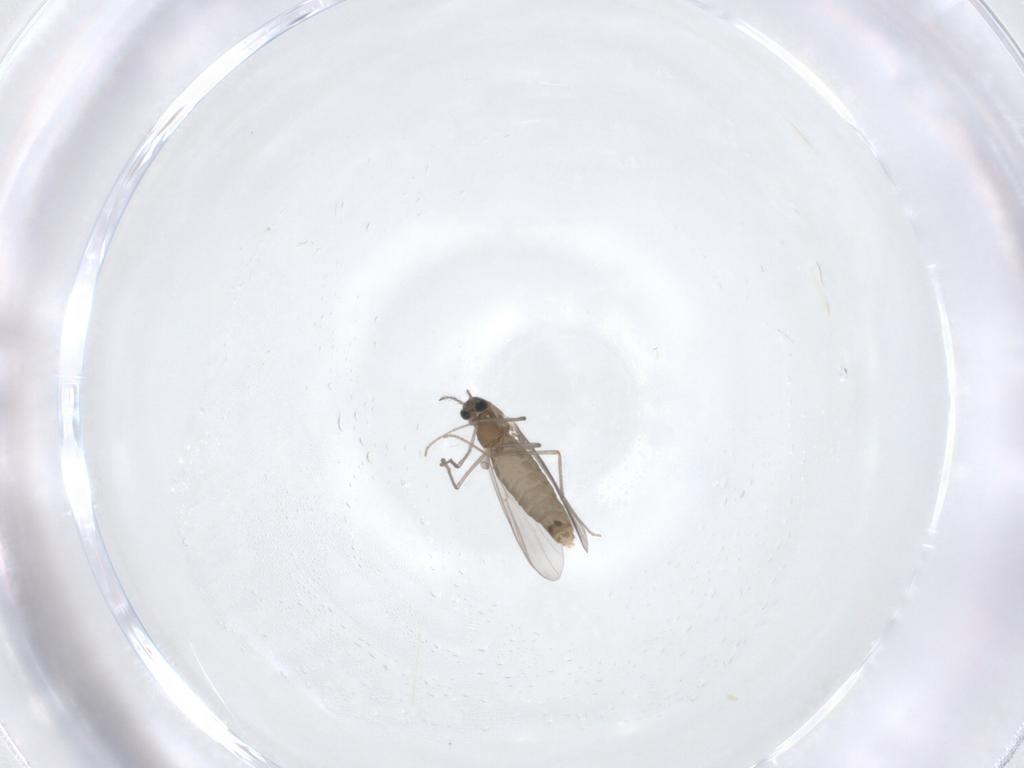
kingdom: Animalia
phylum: Arthropoda
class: Insecta
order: Diptera
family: Chironomidae
